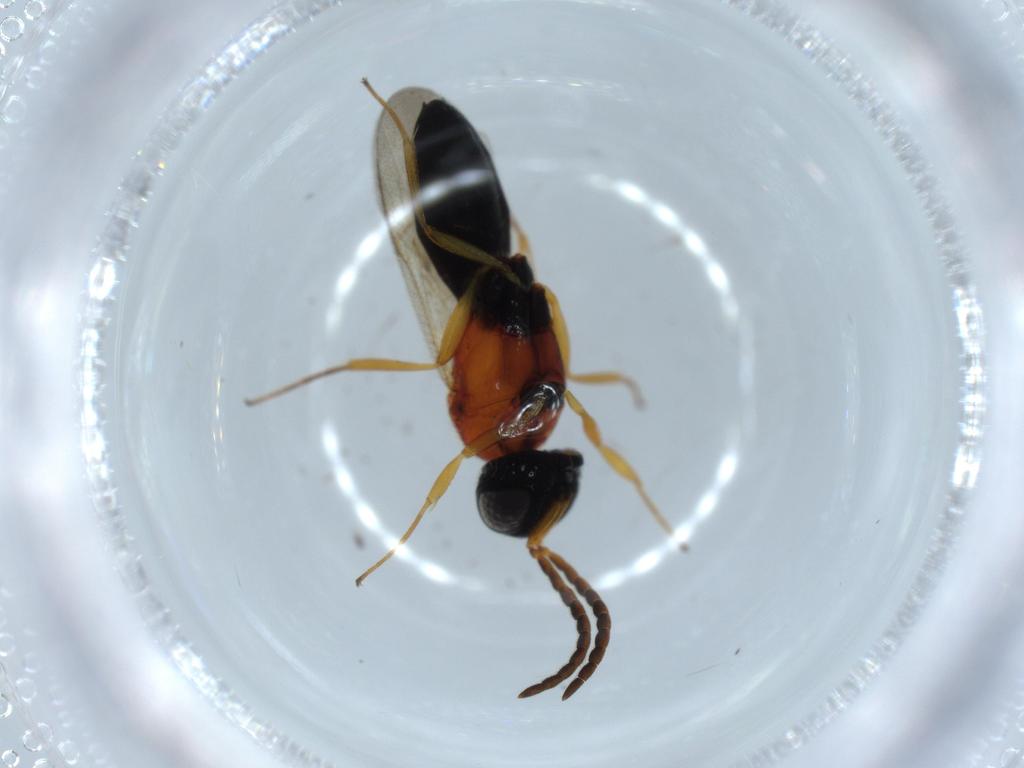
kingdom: Animalia
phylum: Arthropoda
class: Insecta
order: Hymenoptera
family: Scelionidae
